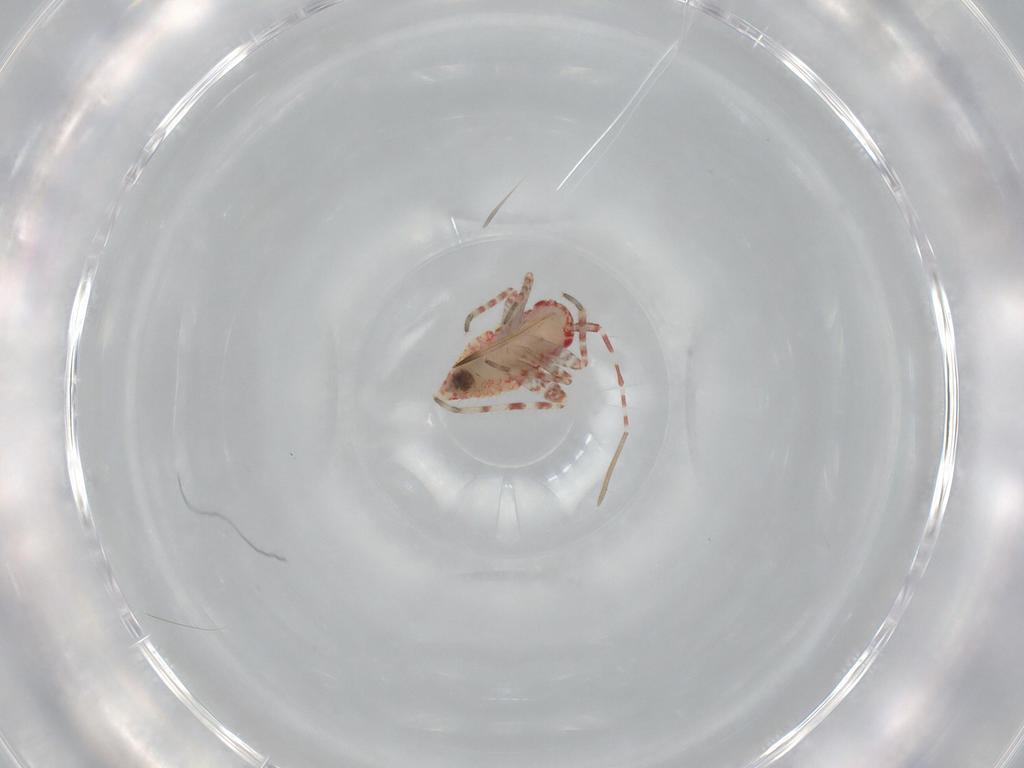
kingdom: Animalia
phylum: Arthropoda
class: Insecta
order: Hemiptera
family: Miridae
